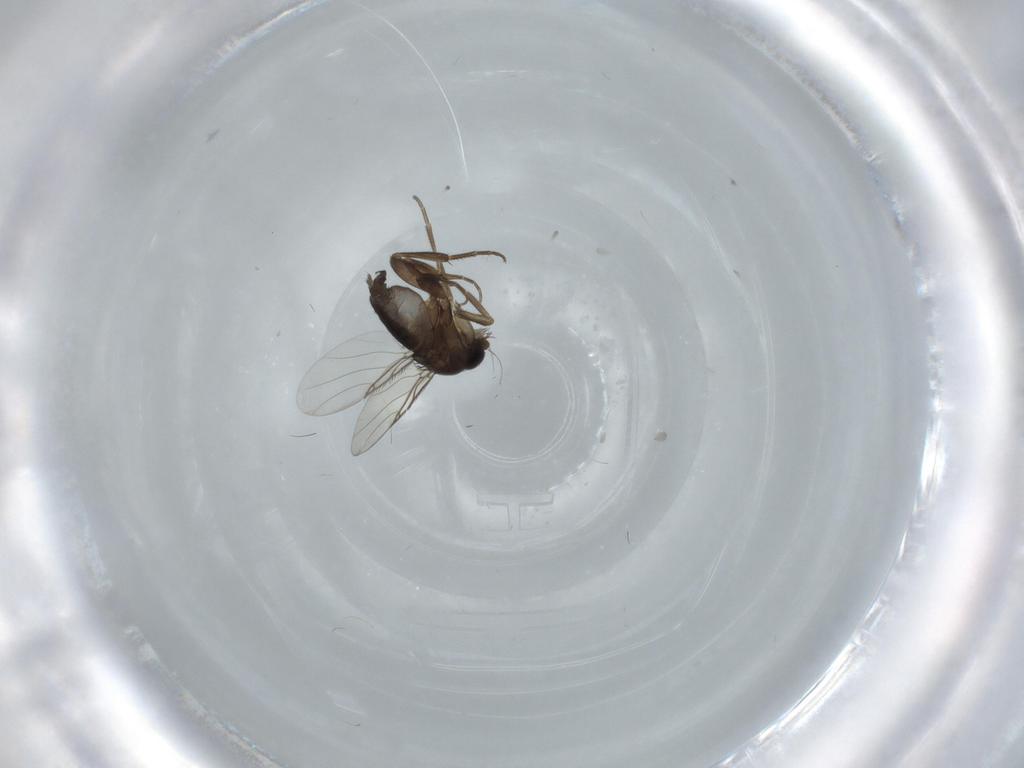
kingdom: Animalia
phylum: Arthropoda
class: Insecta
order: Diptera
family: Phoridae
